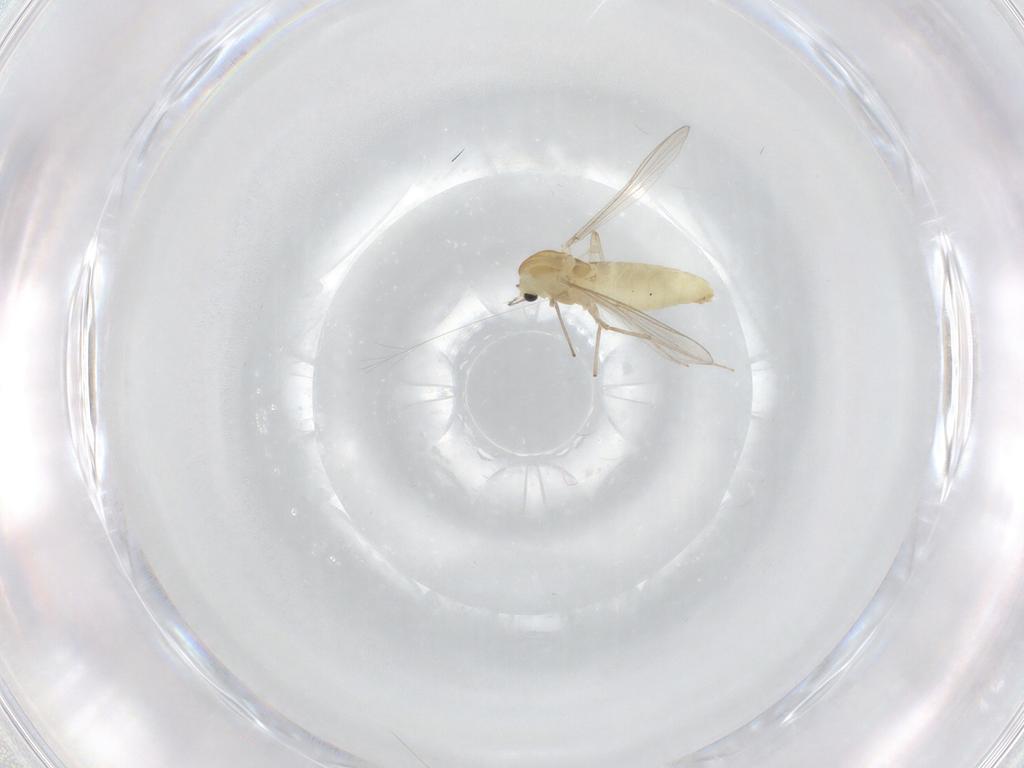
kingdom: Animalia
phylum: Arthropoda
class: Insecta
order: Diptera
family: Chironomidae
